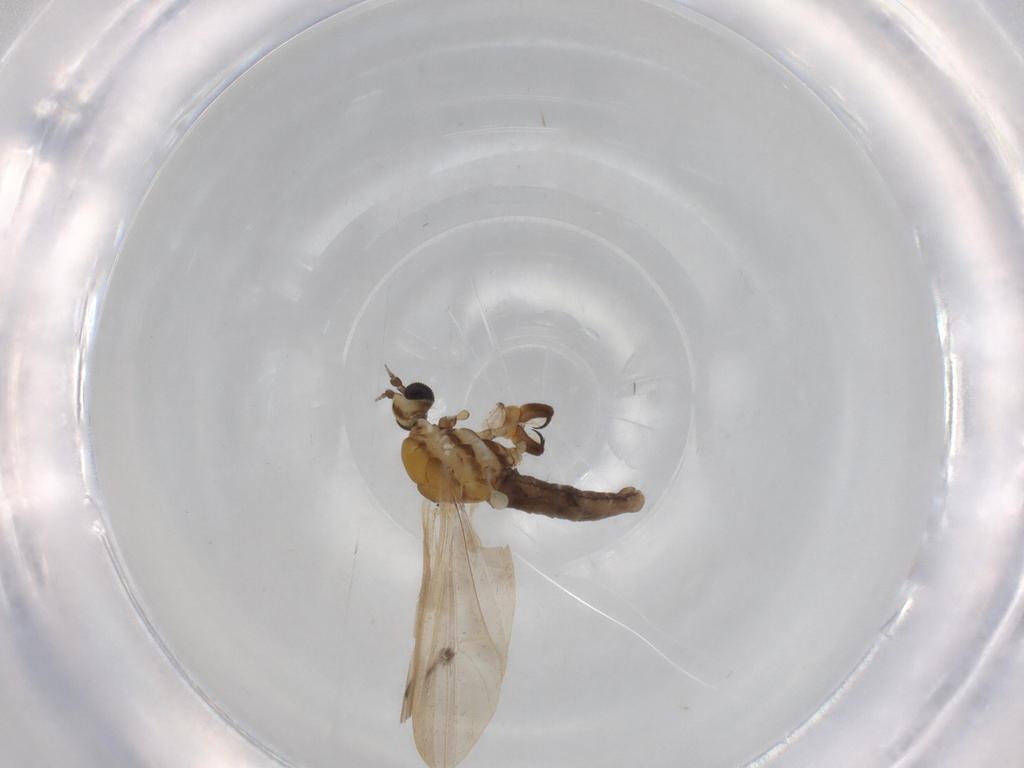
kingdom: Animalia
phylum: Arthropoda
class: Insecta
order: Diptera
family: Limoniidae
